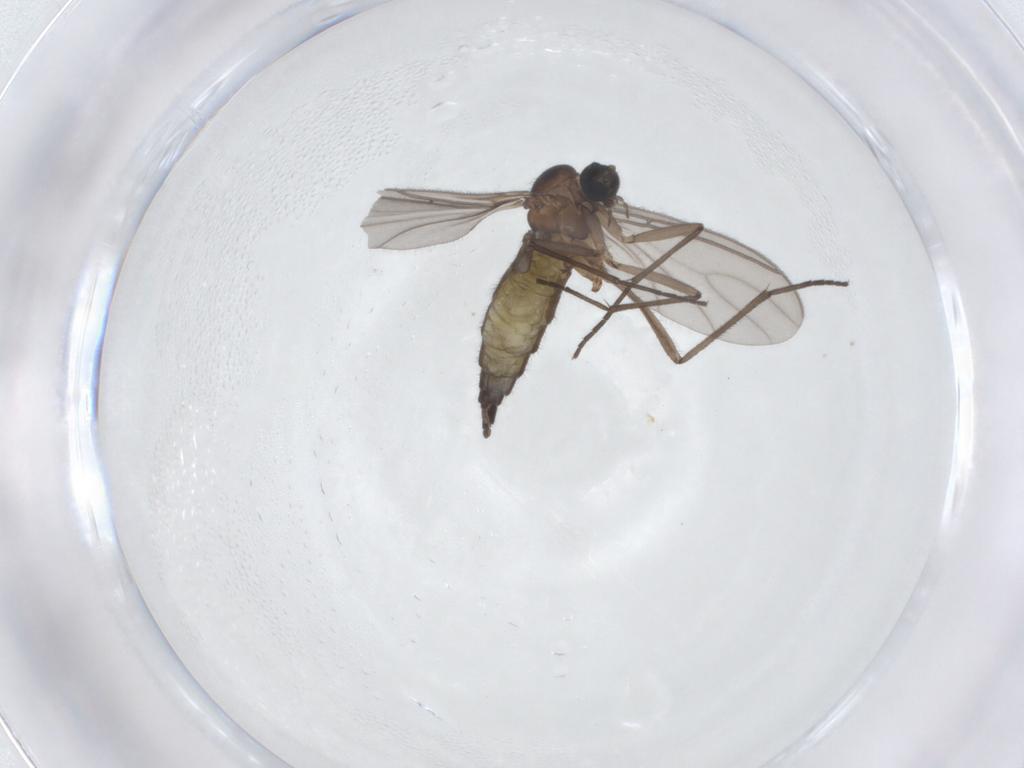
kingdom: Animalia
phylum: Arthropoda
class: Insecta
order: Diptera
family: Sciaridae
